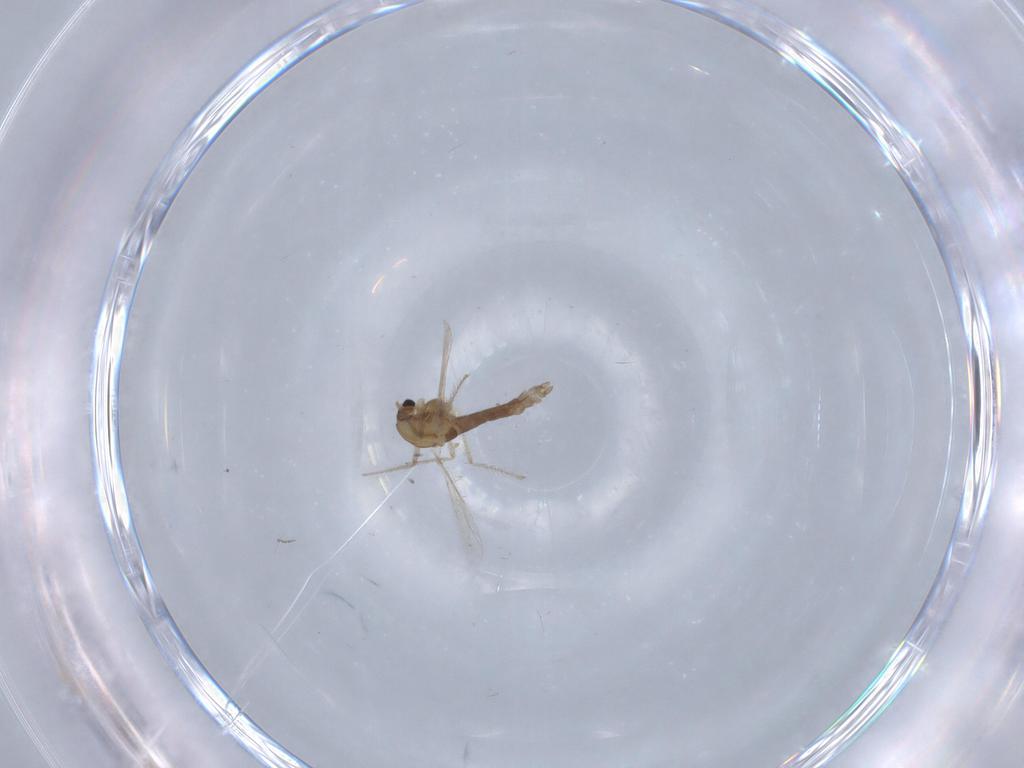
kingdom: Animalia
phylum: Arthropoda
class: Insecta
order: Diptera
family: Chironomidae
